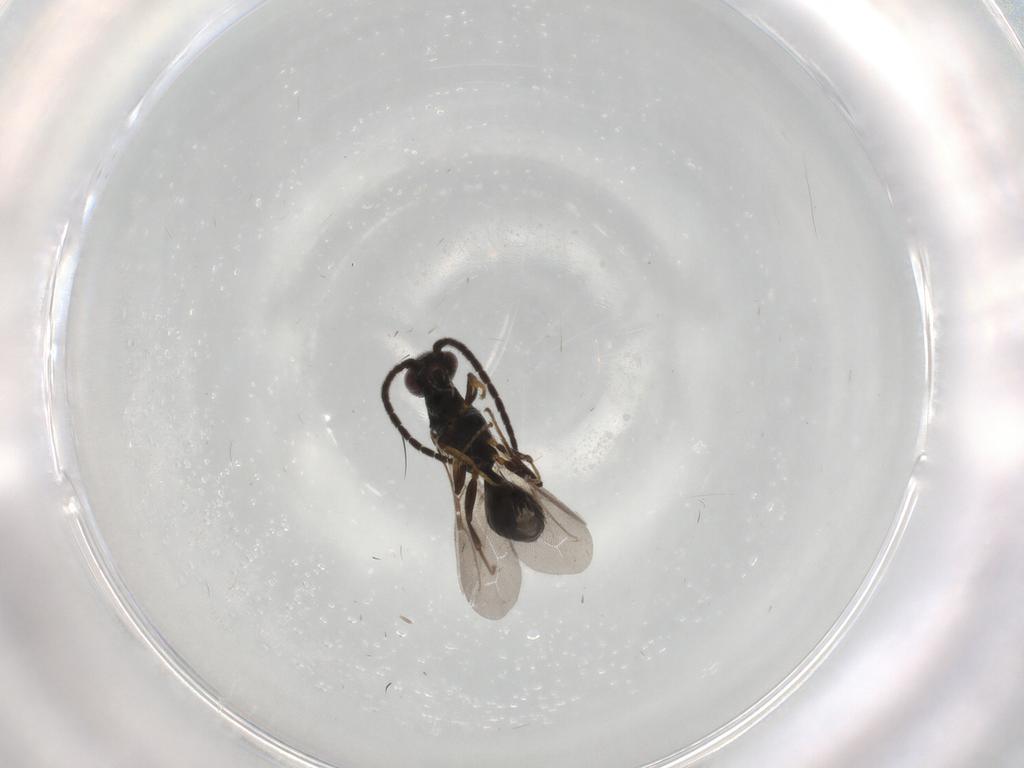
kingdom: Animalia
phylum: Arthropoda
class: Insecta
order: Hymenoptera
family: Bethylidae
